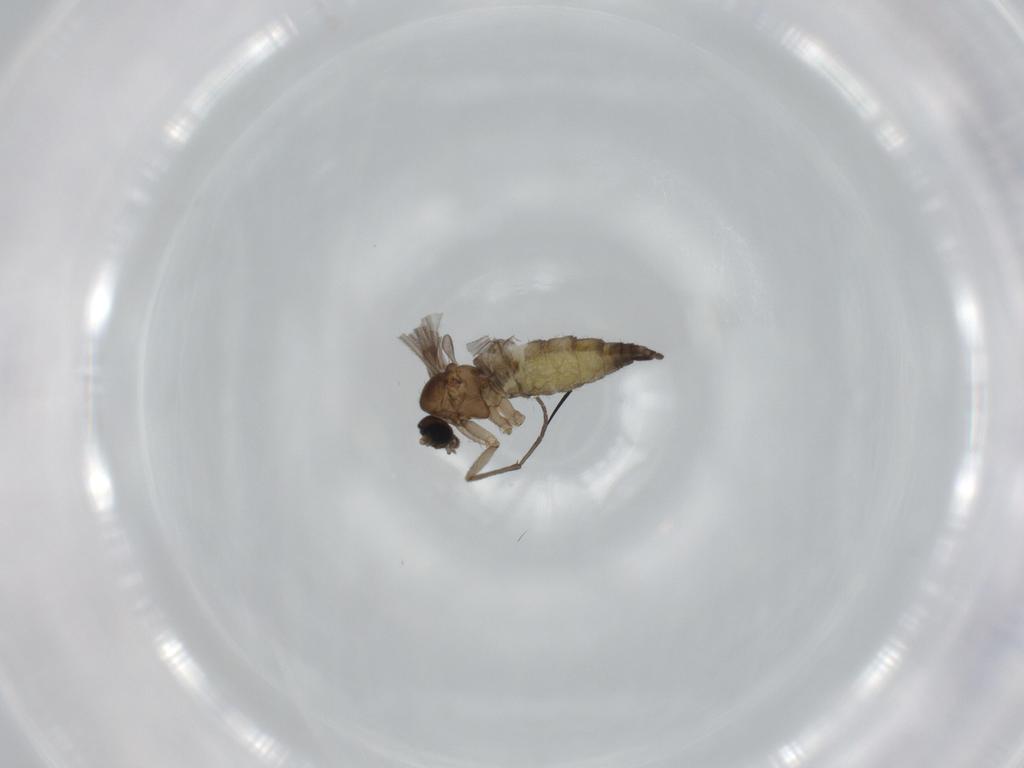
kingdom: Animalia
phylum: Arthropoda
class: Insecta
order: Diptera
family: Sciaridae
